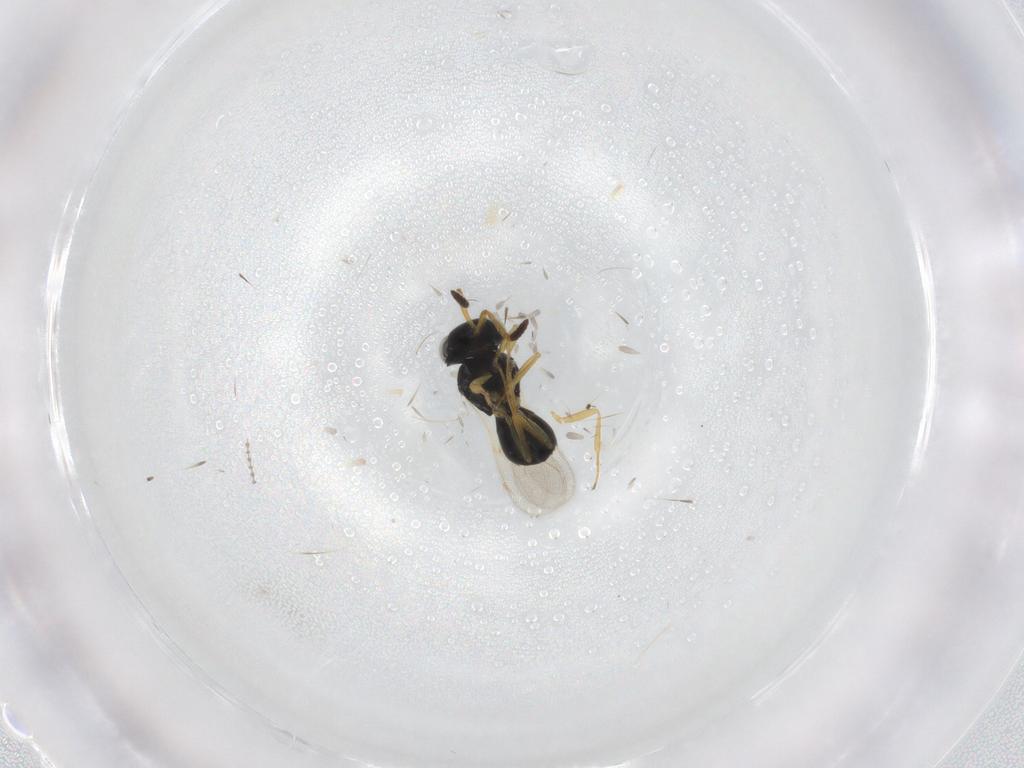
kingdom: Animalia
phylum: Arthropoda
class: Insecta
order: Hymenoptera
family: Scelionidae
